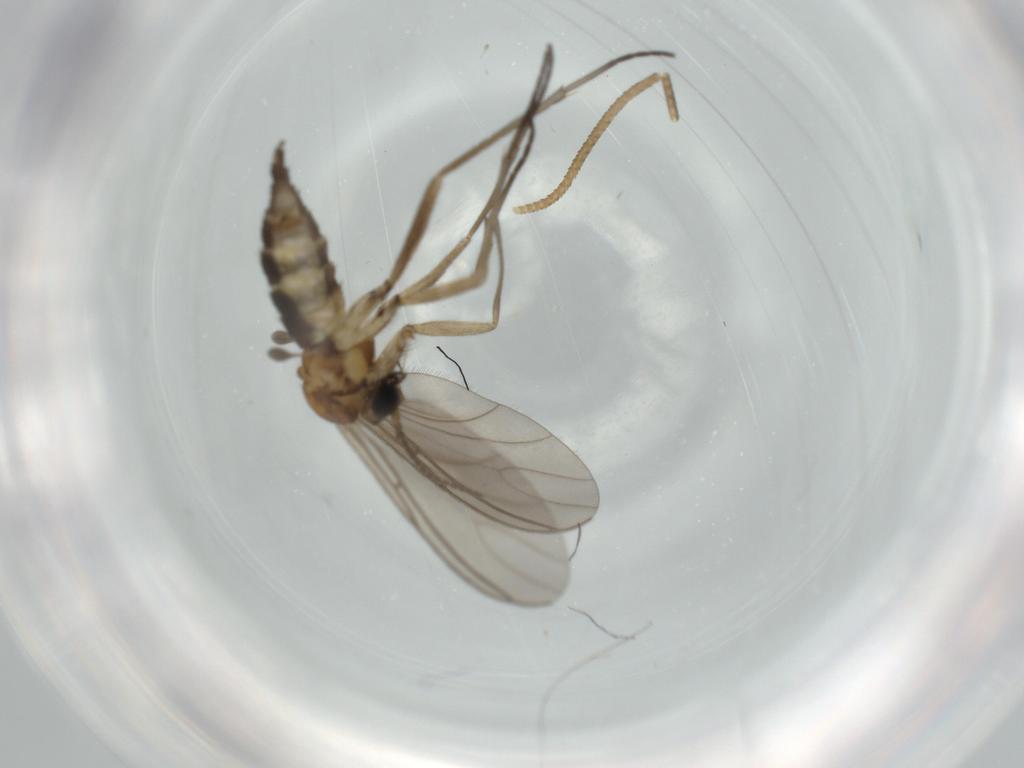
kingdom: Animalia
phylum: Arthropoda
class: Insecta
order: Diptera
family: Sciaridae
